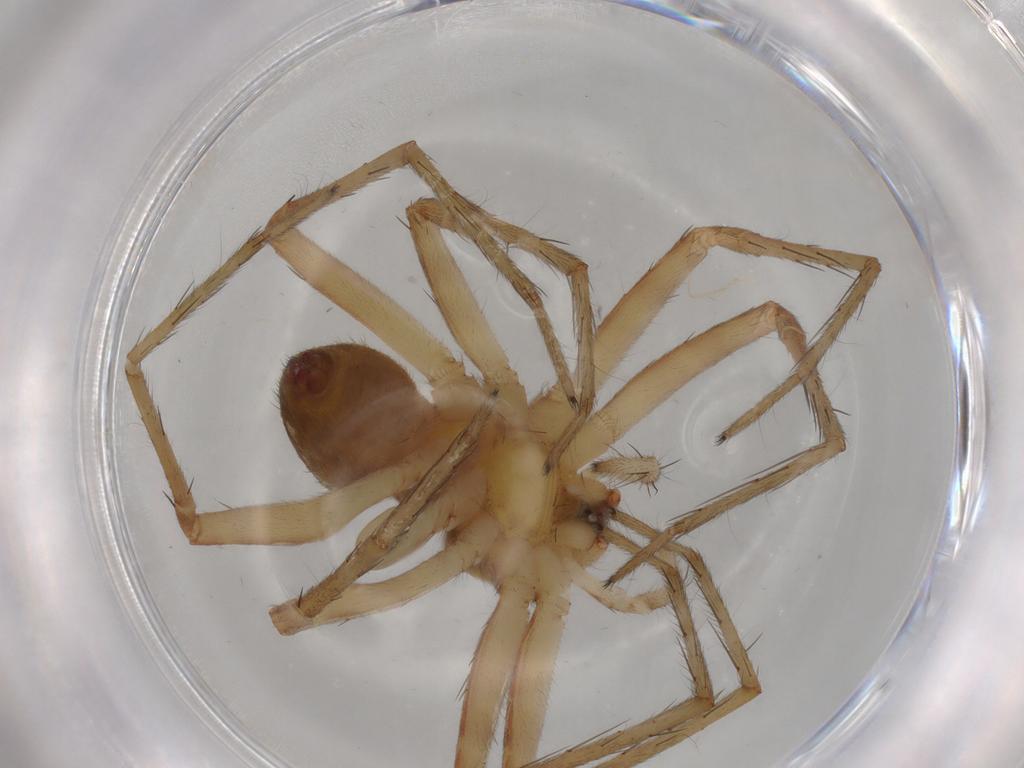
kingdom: Animalia
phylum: Arthropoda
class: Arachnida
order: Araneae
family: Pisauridae
